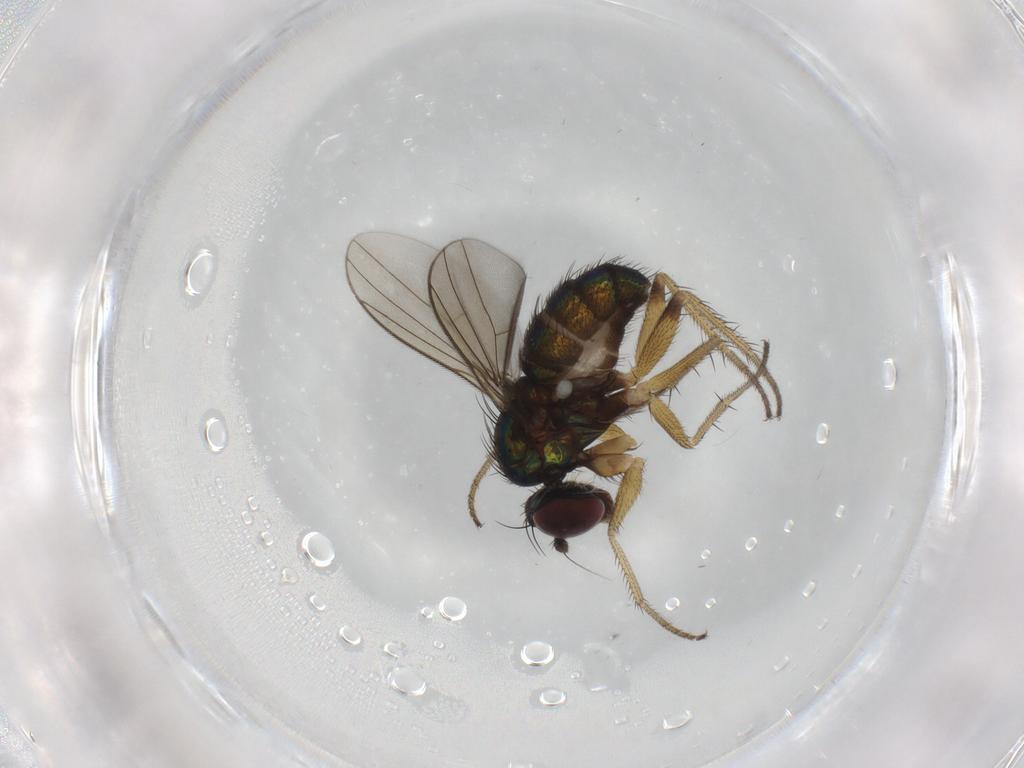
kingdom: Animalia
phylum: Arthropoda
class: Insecta
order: Diptera
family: Dolichopodidae
